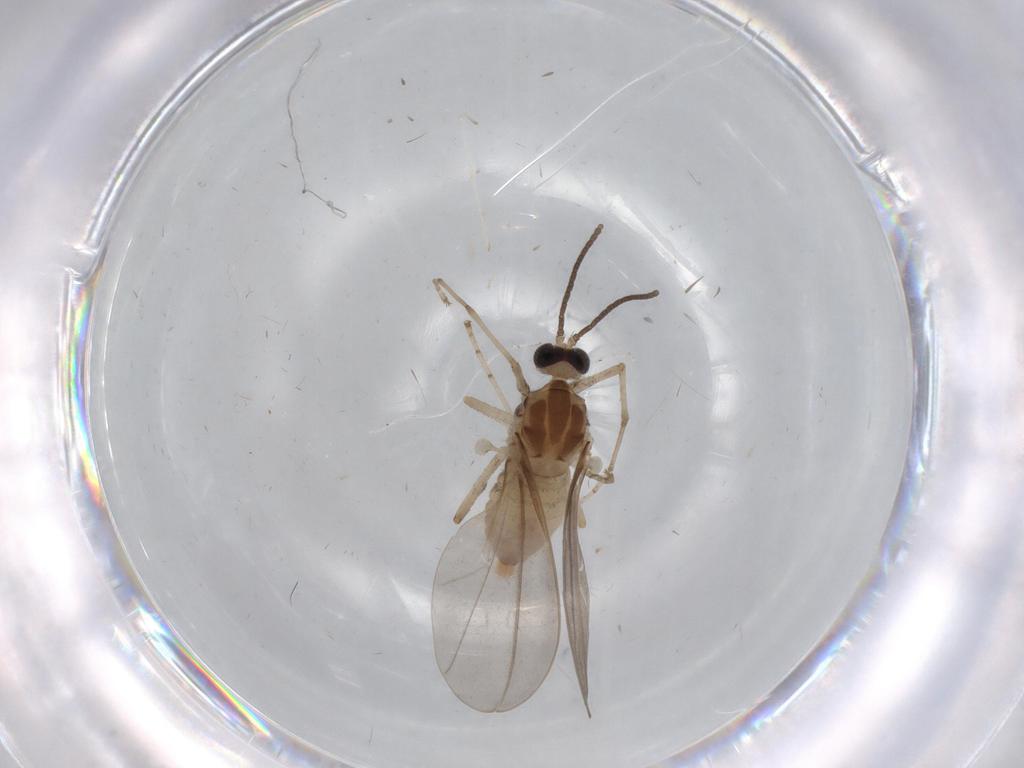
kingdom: Animalia
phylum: Arthropoda
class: Insecta
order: Diptera
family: Cecidomyiidae
